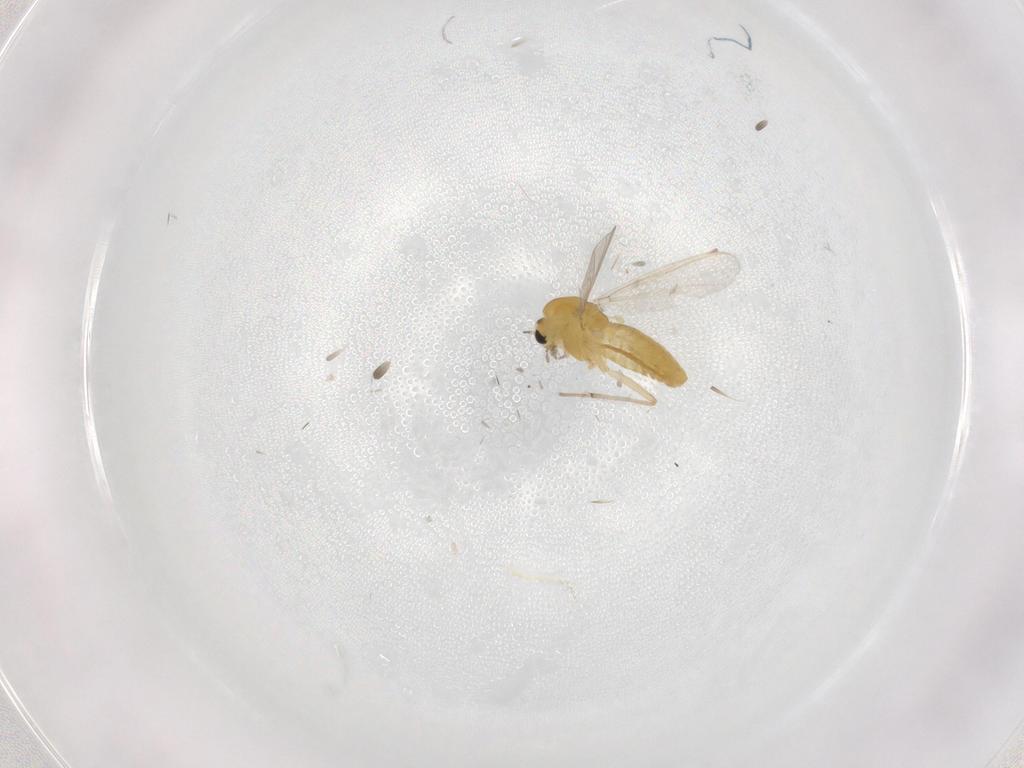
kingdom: Animalia
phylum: Arthropoda
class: Insecta
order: Diptera
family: Chironomidae
